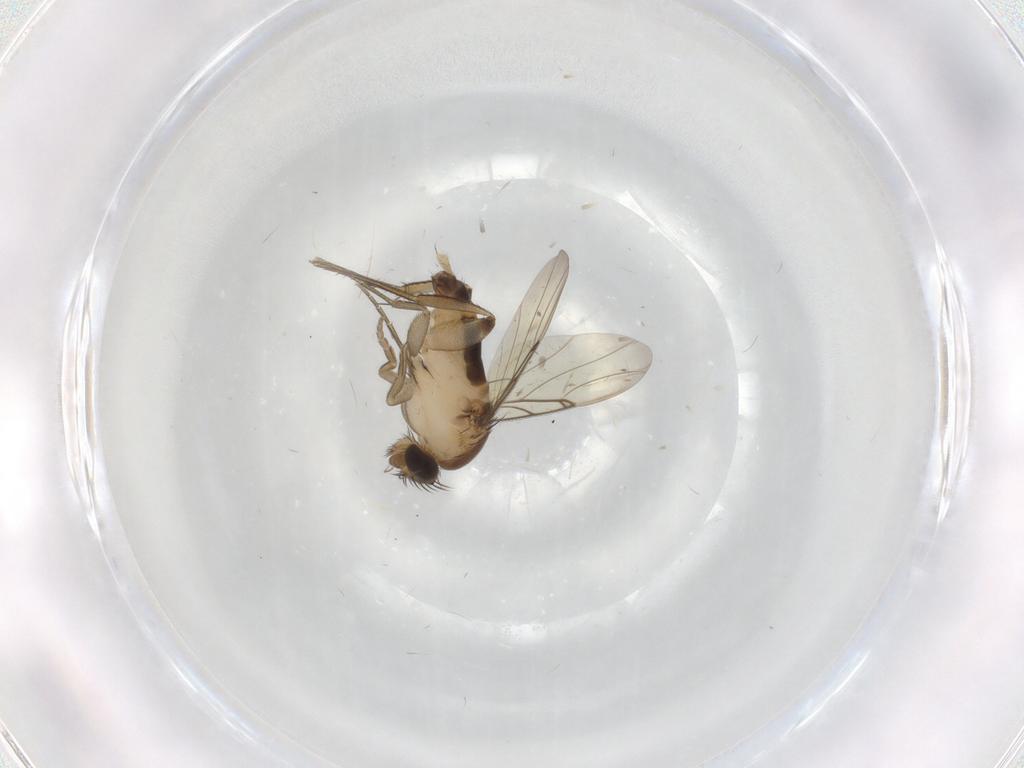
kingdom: Animalia
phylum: Arthropoda
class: Insecta
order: Diptera
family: Phoridae
